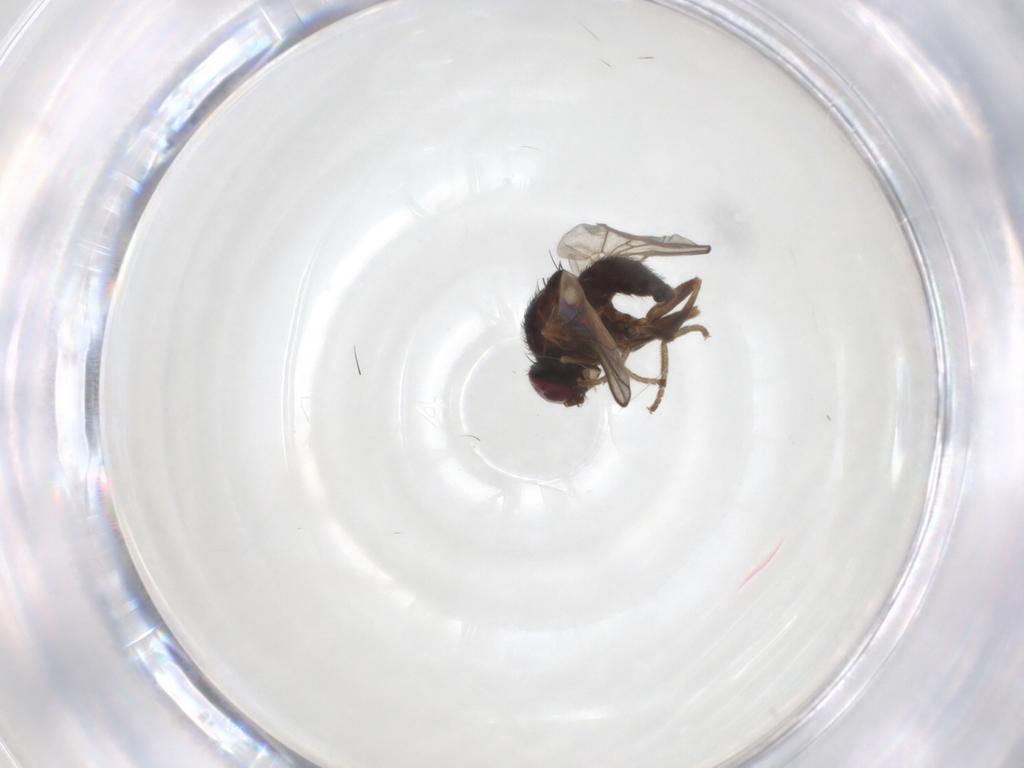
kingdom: Animalia
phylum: Arthropoda
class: Insecta
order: Diptera
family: Agromyzidae
